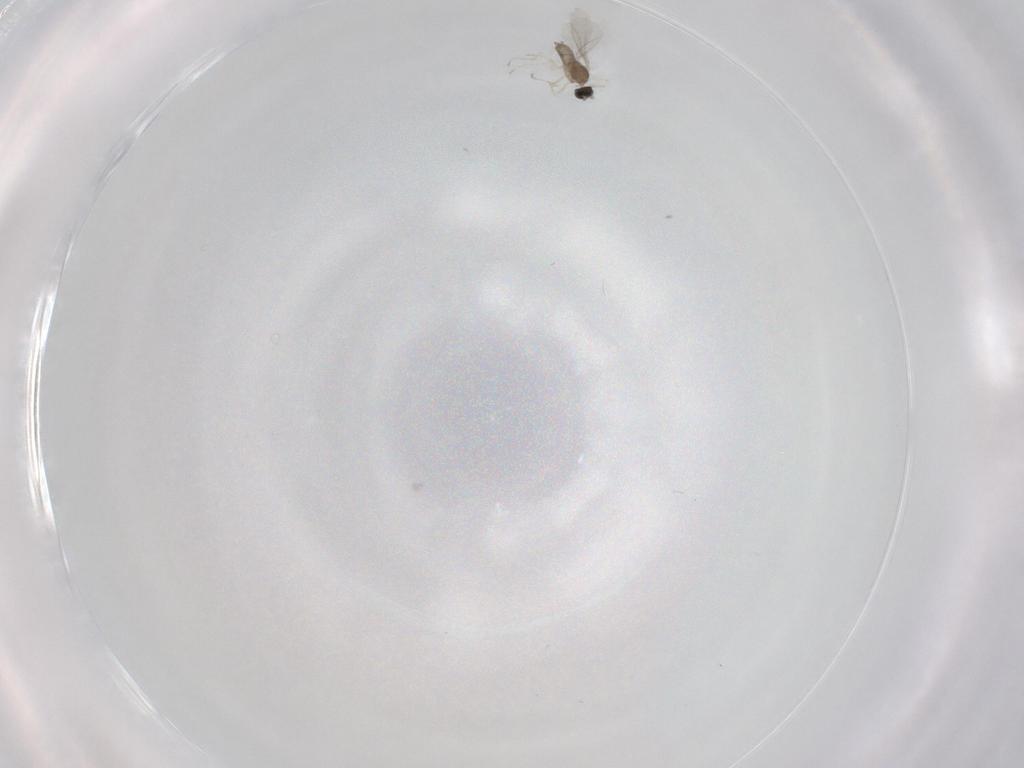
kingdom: Animalia
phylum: Arthropoda
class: Insecta
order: Diptera
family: Cecidomyiidae
